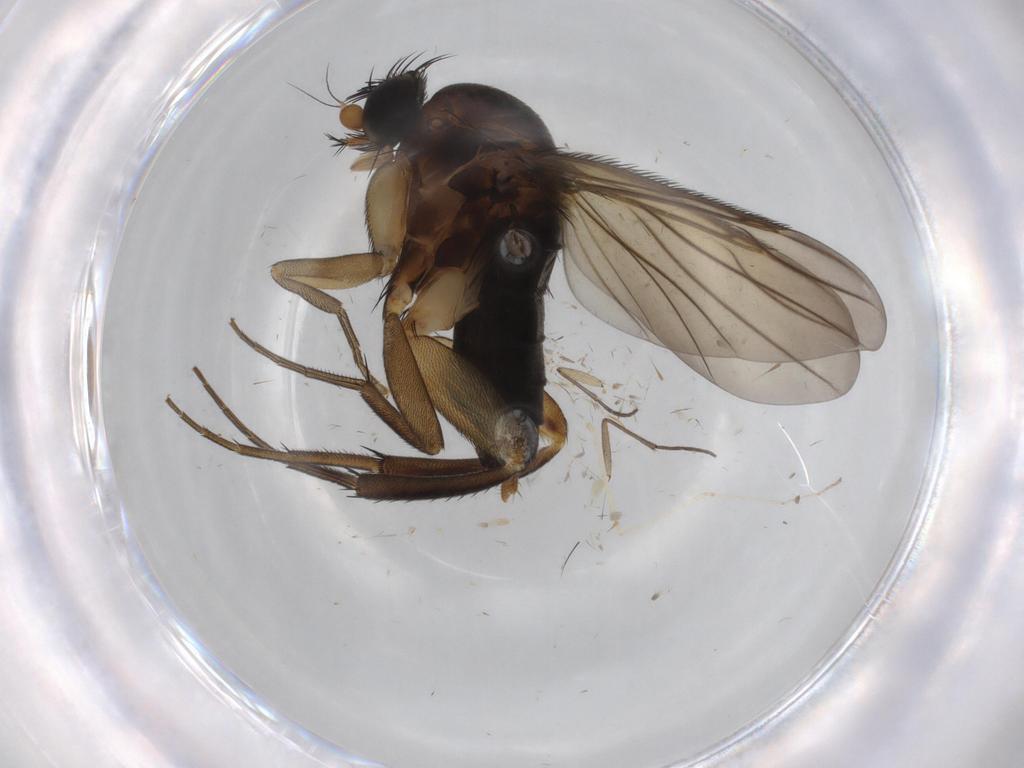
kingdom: Animalia
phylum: Arthropoda
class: Insecta
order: Diptera
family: Phoridae
